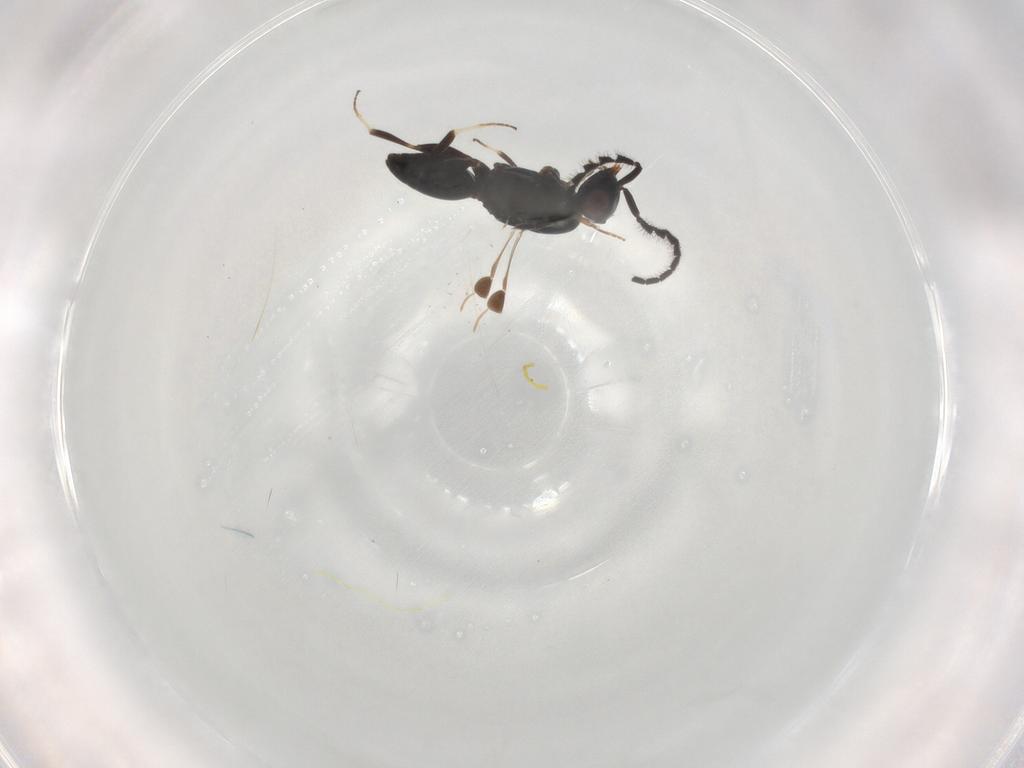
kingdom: Animalia
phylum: Arthropoda
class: Insecta
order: Hymenoptera
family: Megaspilidae
